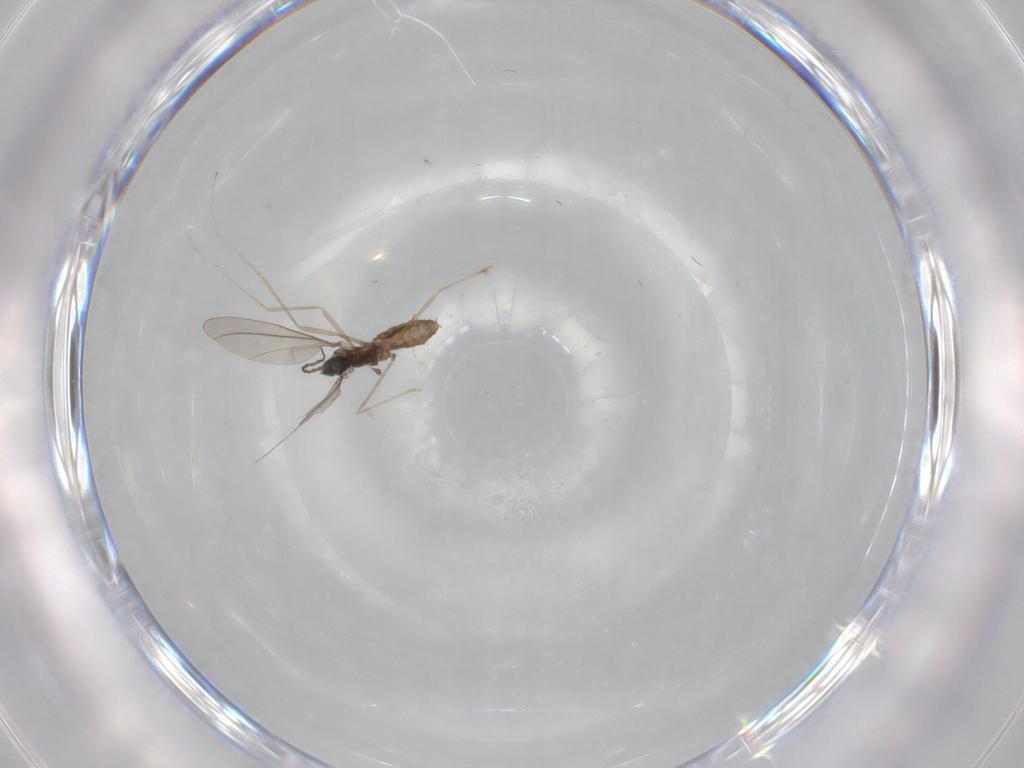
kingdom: Animalia
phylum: Arthropoda
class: Insecta
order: Diptera
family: Cecidomyiidae
